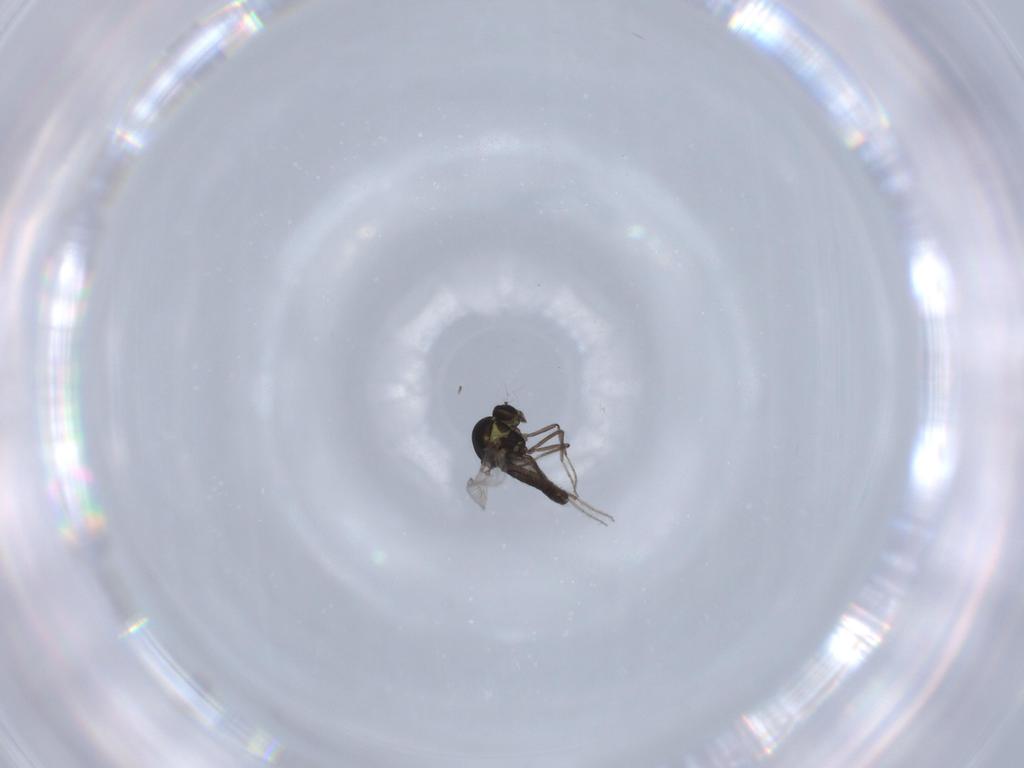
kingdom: Animalia
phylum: Arthropoda
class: Insecta
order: Diptera
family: Ceratopogonidae
